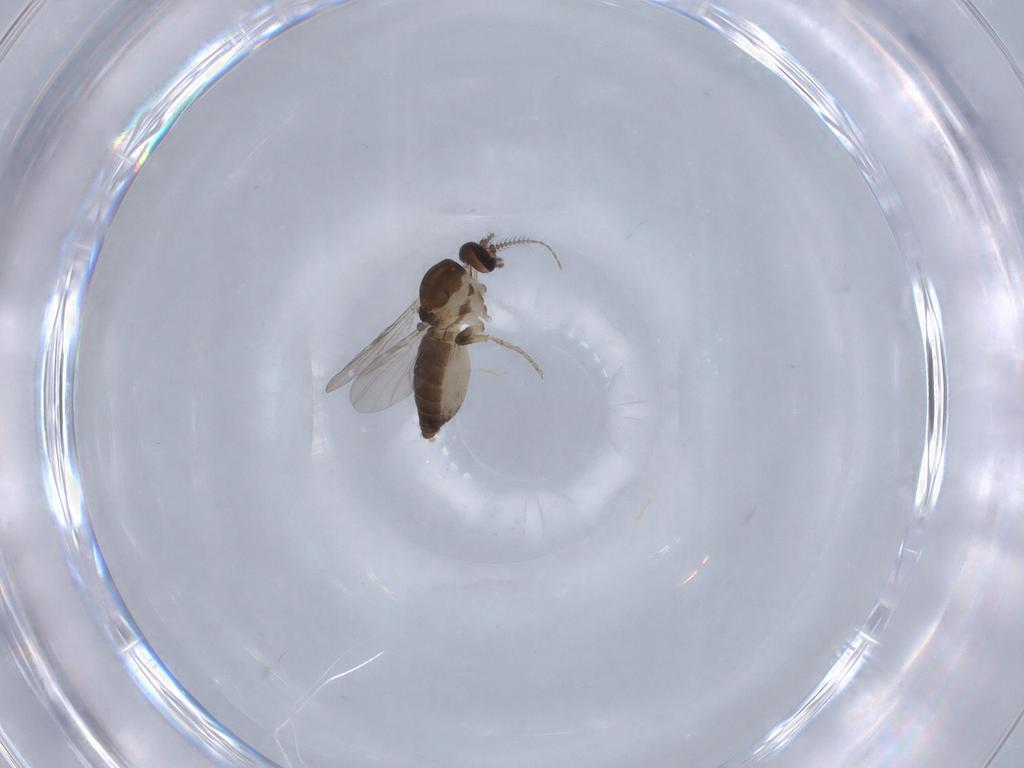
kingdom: Animalia
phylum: Arthropoda
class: Insecta
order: Diptera
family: Ceratopogonidae
